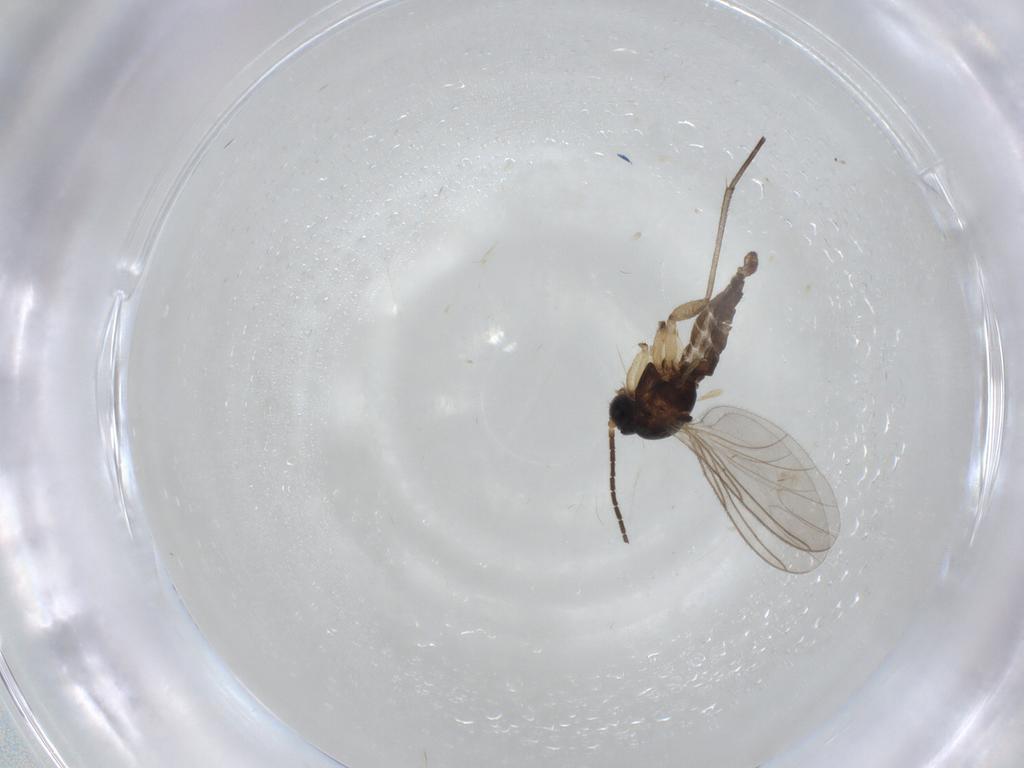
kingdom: Animalia
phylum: Arthropoda
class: Insecta
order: Diptera
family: Sciaridae
